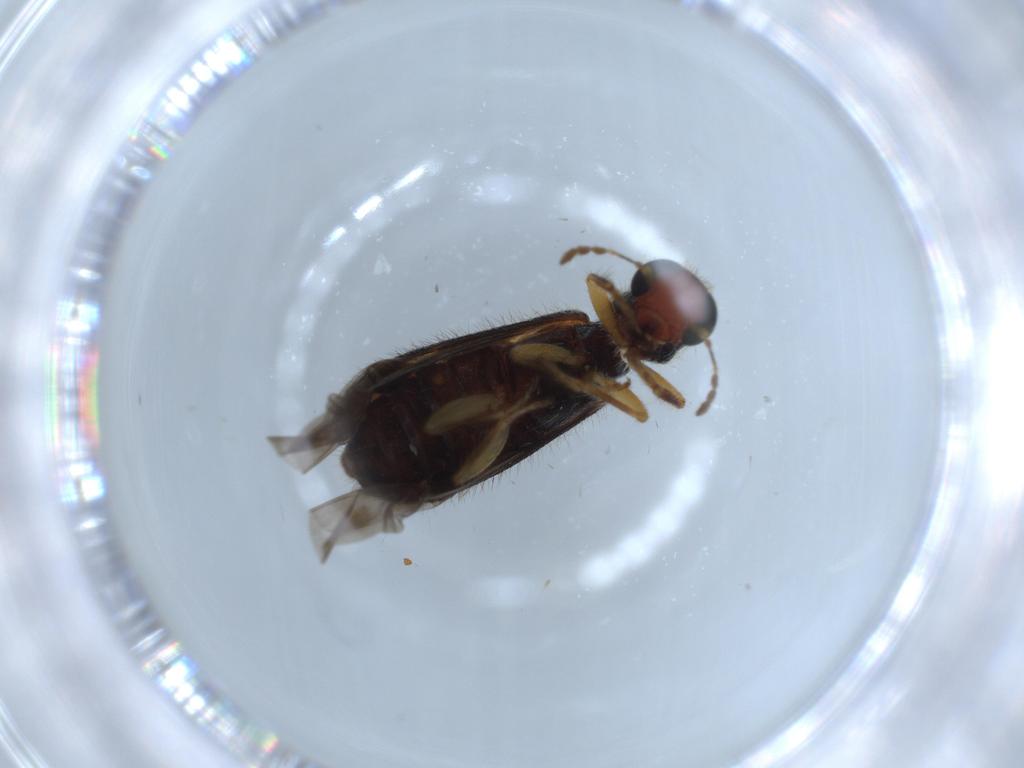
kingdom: Animalia
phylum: Arthropoda
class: Insecta
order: Coleoptera
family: Cleridae
